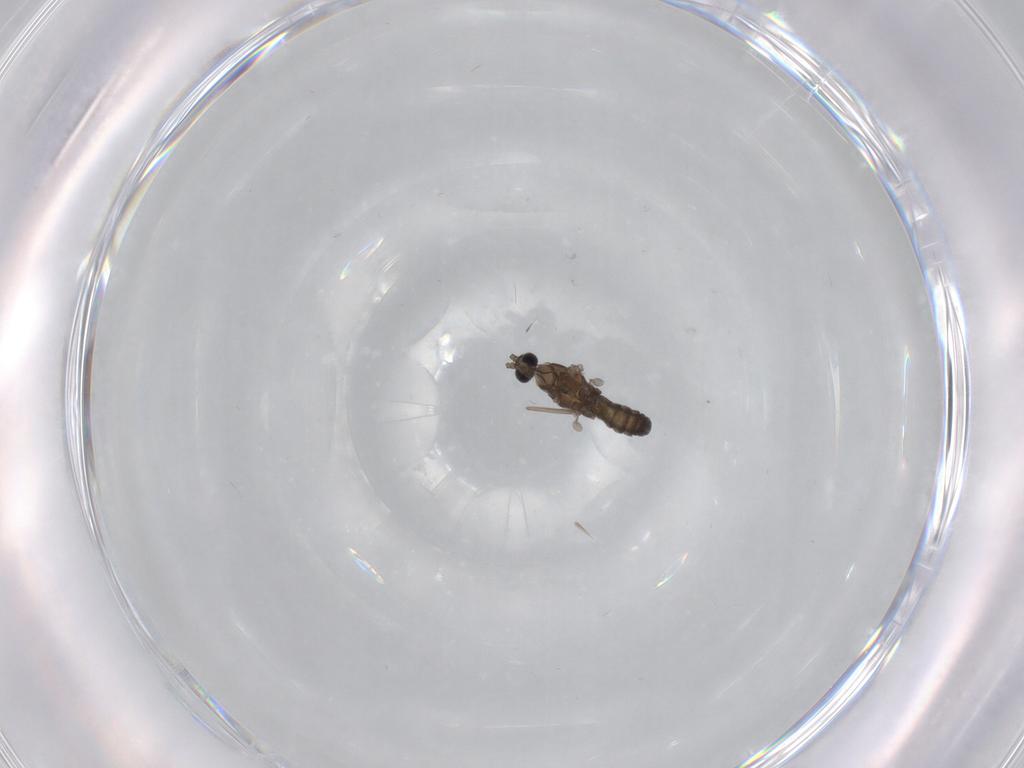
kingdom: Animalia
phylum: Arthropoda
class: Insecta
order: Diptera
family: Cecidomyiidae
